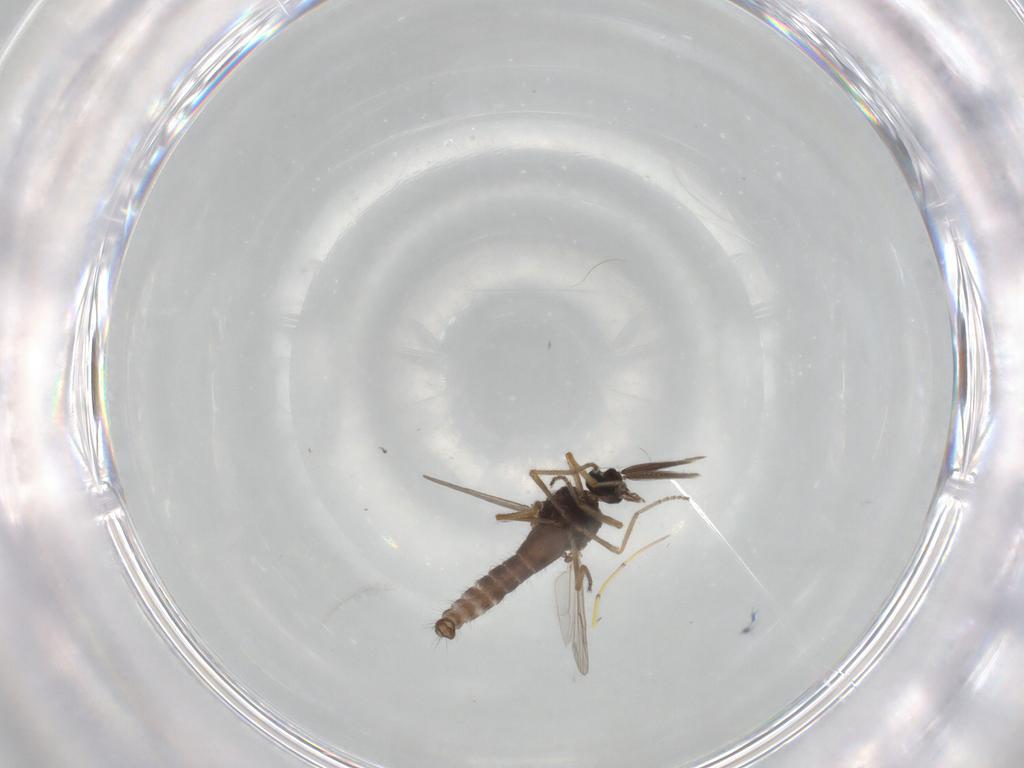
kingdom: Animalia
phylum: Arthropoda
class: Insecta
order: Diptera
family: Ceratopogonidae
